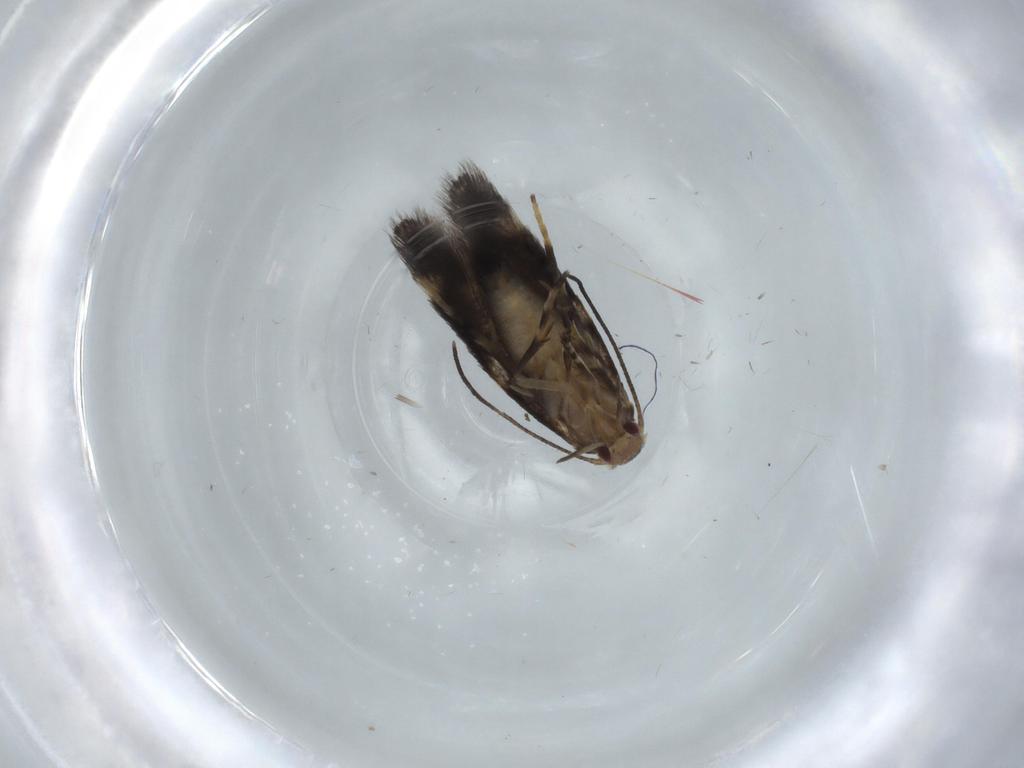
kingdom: Animalia
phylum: Arthropoda
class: Insecta
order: Lepidoptera
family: Cosmopterigidae
